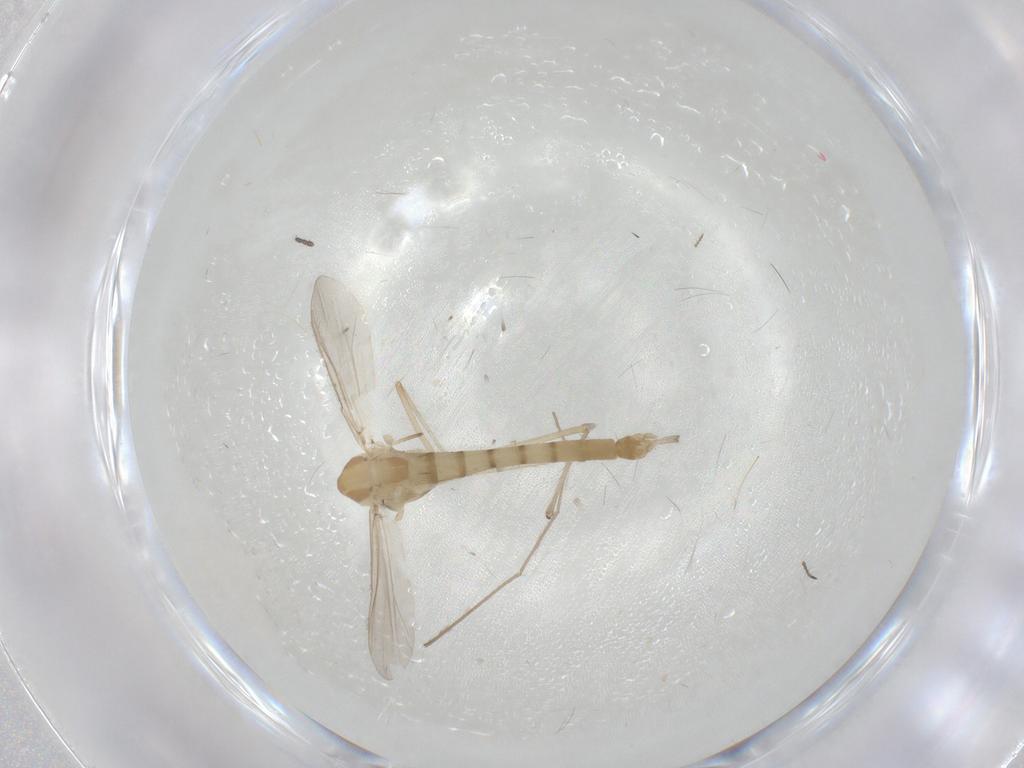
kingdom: Animalia
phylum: Arthropoda
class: Insecta
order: Diptera
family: Chironomidae
